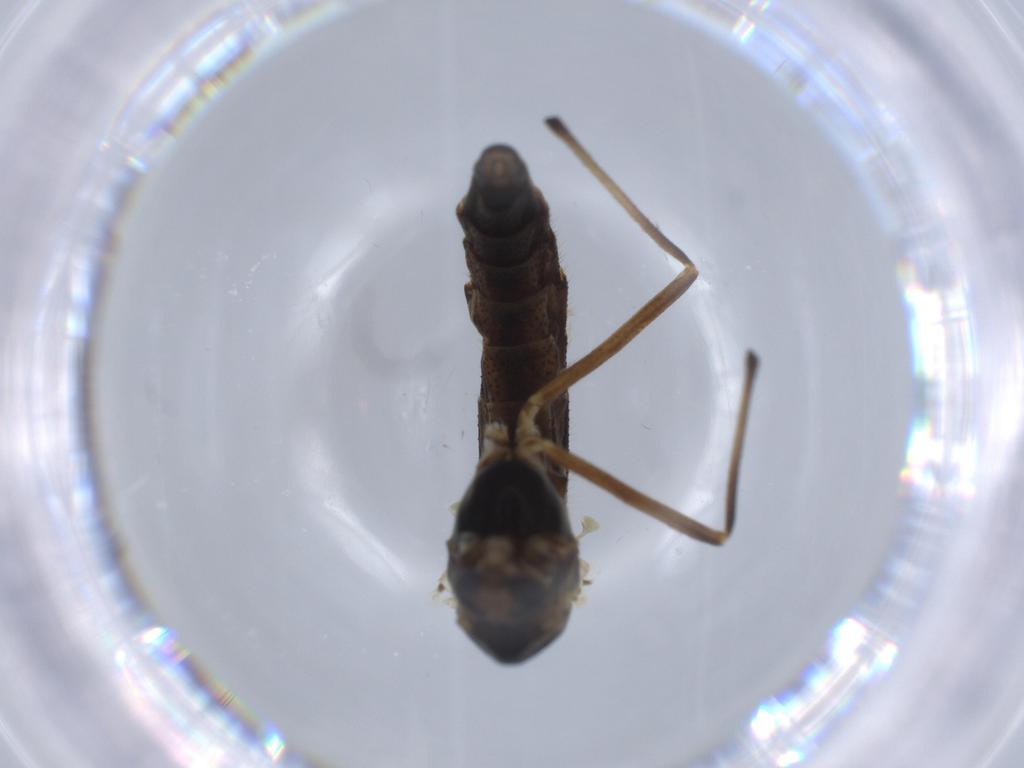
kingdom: Animalia
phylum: Arthropoda
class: Insecta
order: Diptera
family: Chironomidae
